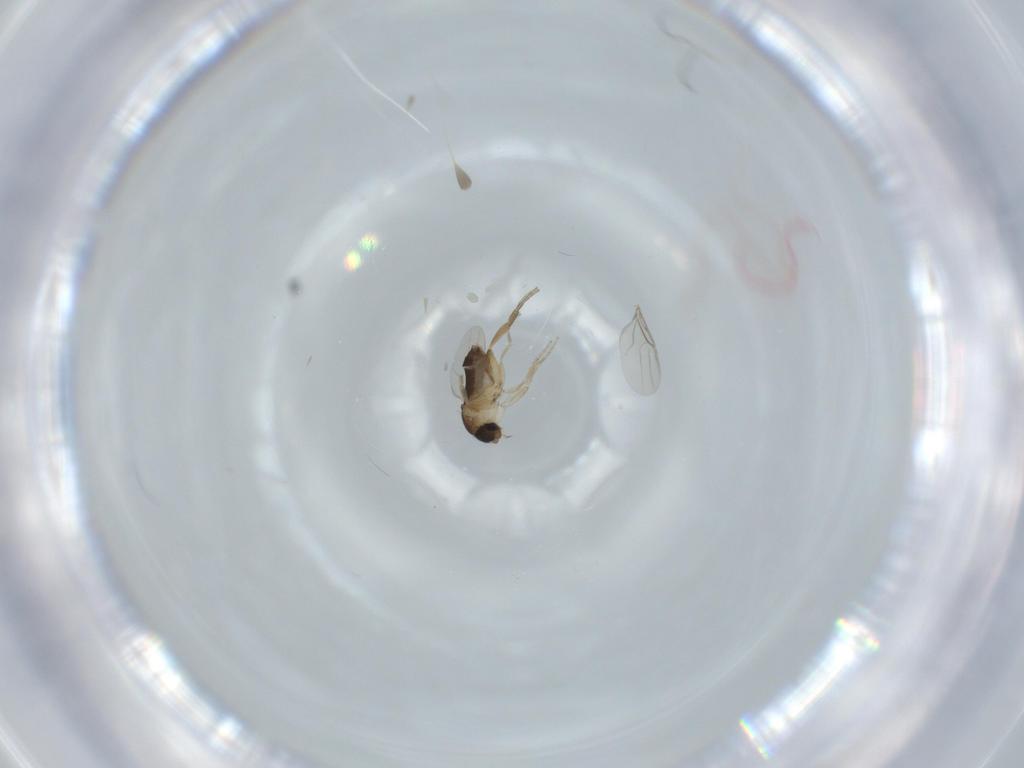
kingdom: Animalia
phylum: Arthropoda
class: Insecta
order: Diptera
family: Phoridae
